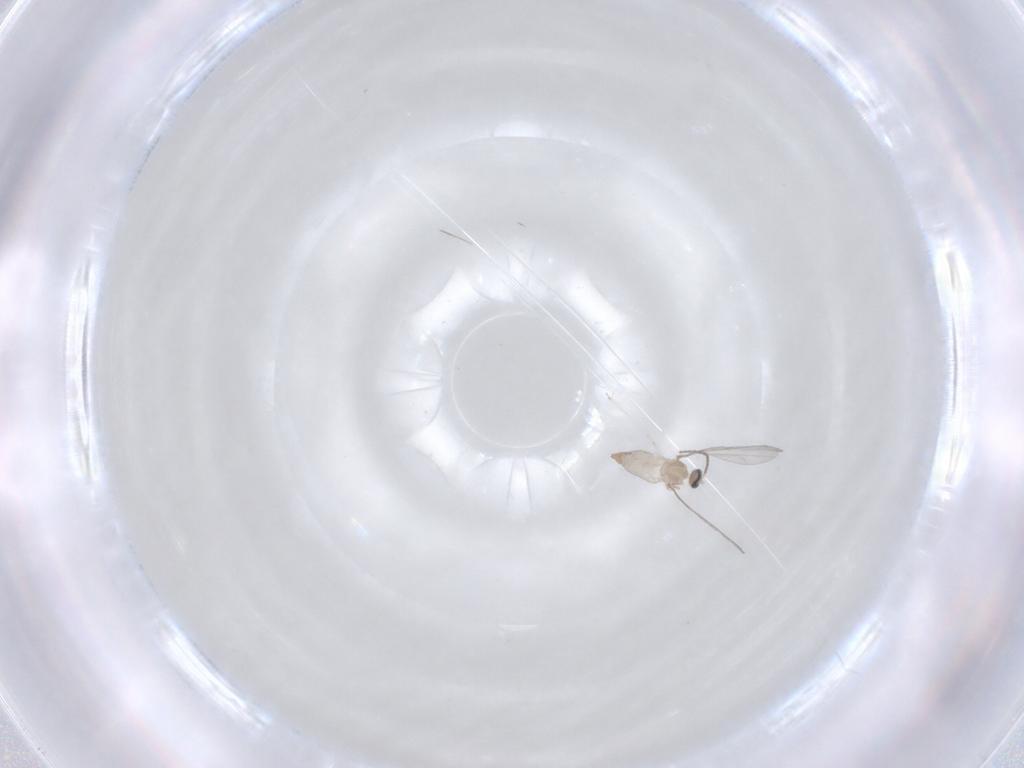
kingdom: Animalia
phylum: Arthropoda
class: Insecta
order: Diptera
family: Cecidomyiidae
